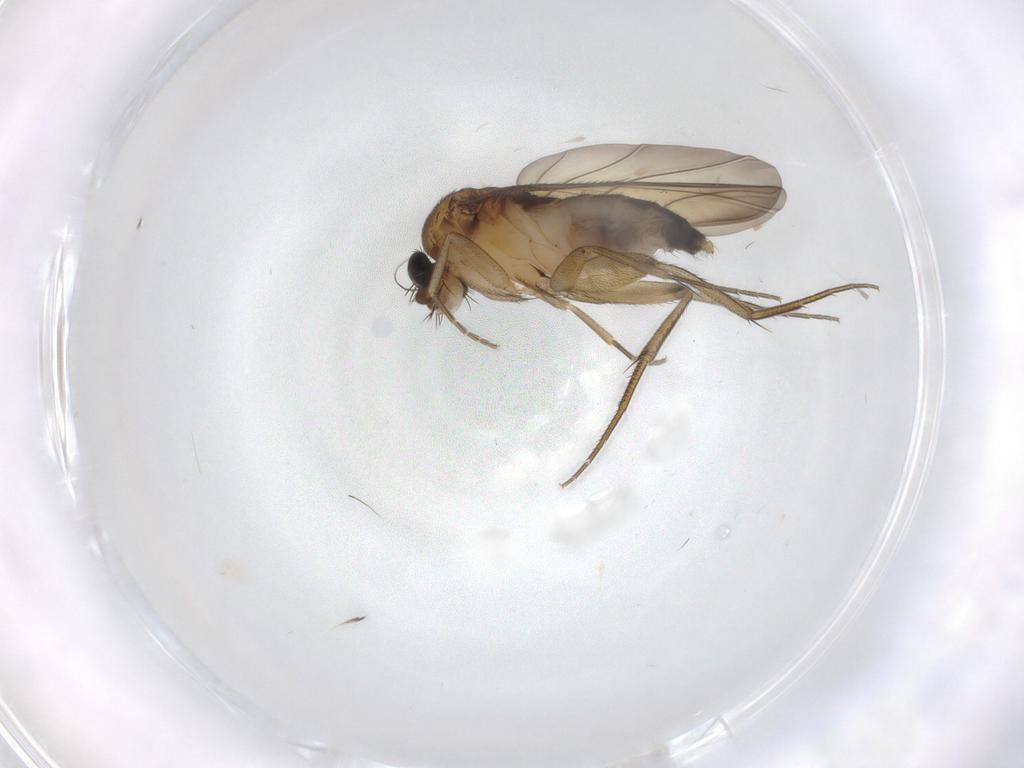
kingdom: Animalia
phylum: Arthropoda
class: Insecta
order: Diptera
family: Phoridae
